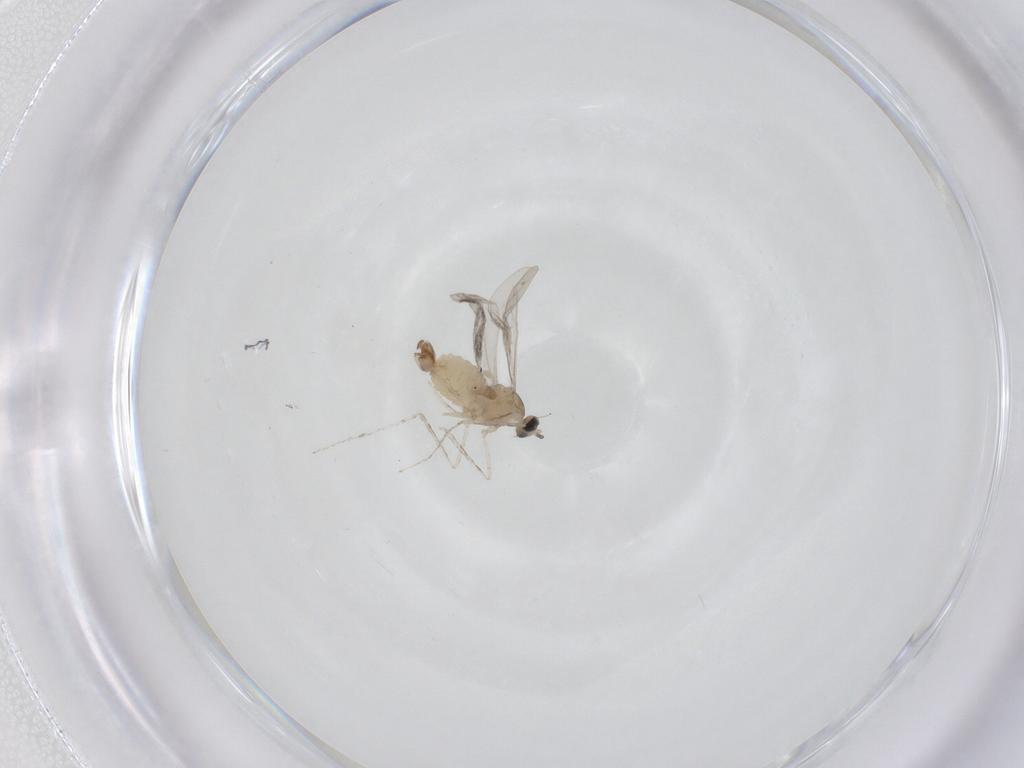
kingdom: Animalia
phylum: Arthropoda
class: Insecta
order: Diptera
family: Cecidomyiidae
